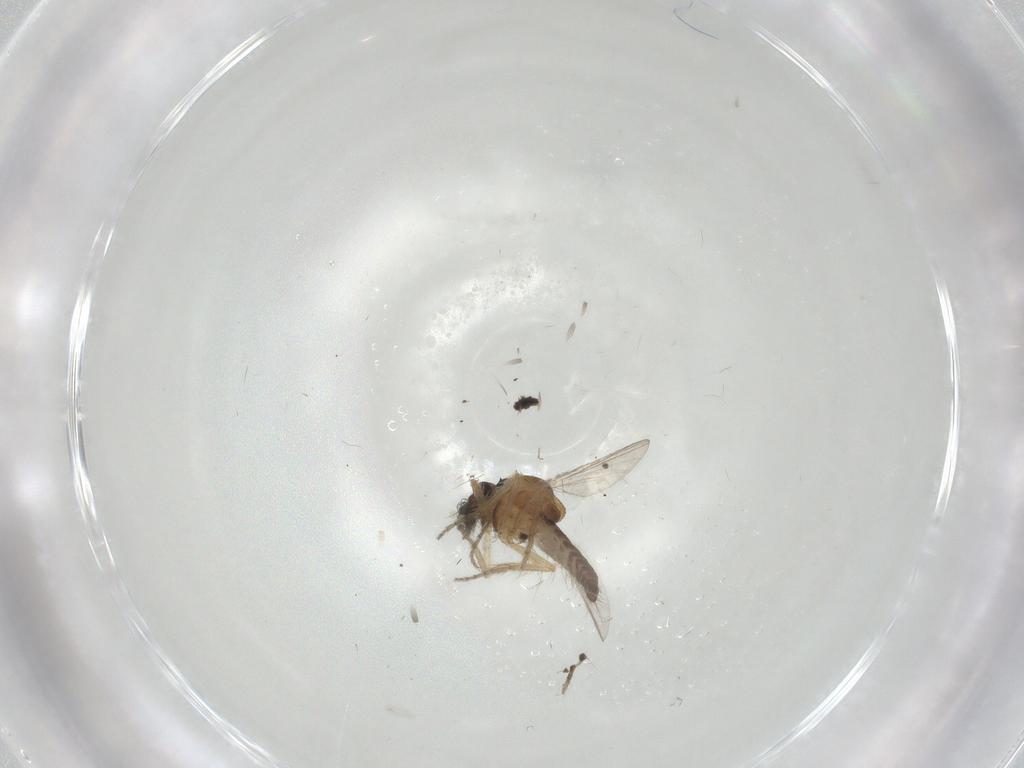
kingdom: Animalia
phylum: Arthropoda
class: Insecta
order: Diptera
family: Ceratopogonidae
